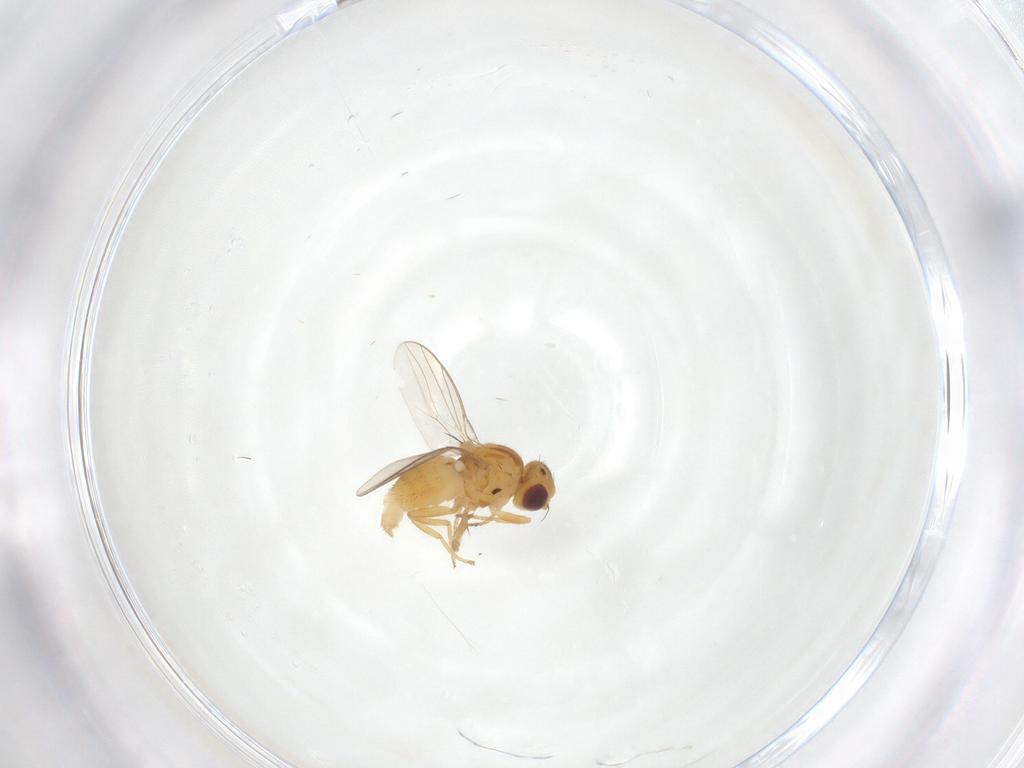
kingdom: Animalia
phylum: Arthropoda
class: Insecta
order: Diptera
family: Chloropidae
